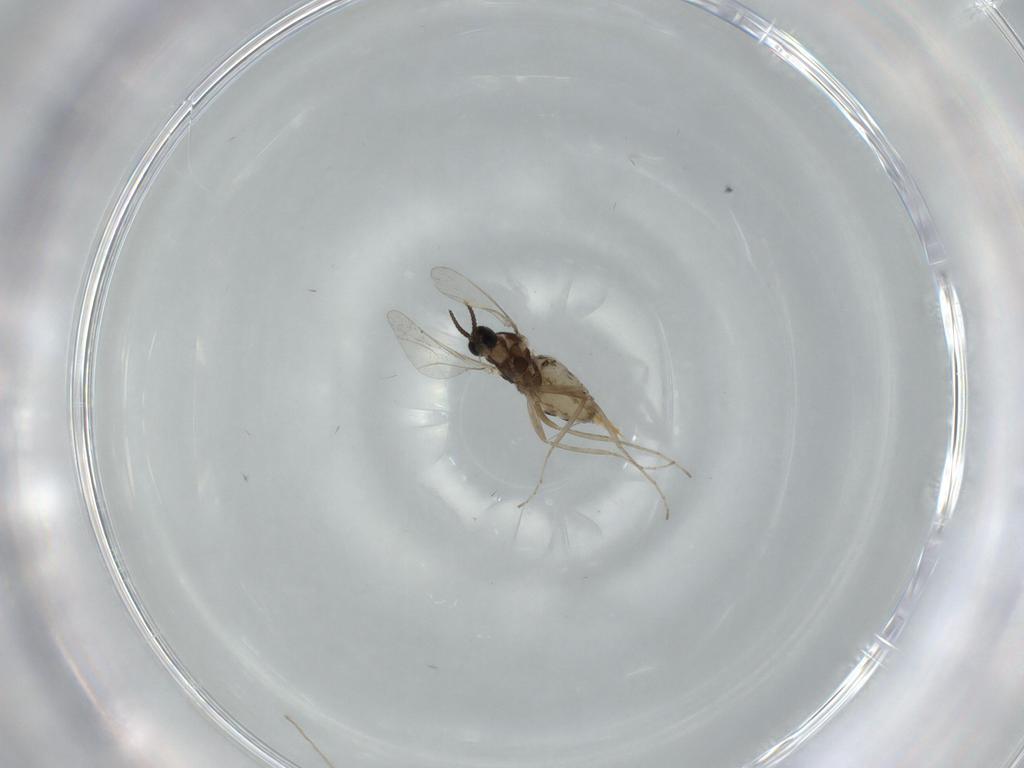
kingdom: Animalia
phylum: Arthropoda
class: Insecta
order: Diptera
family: Cecidomyiidae
